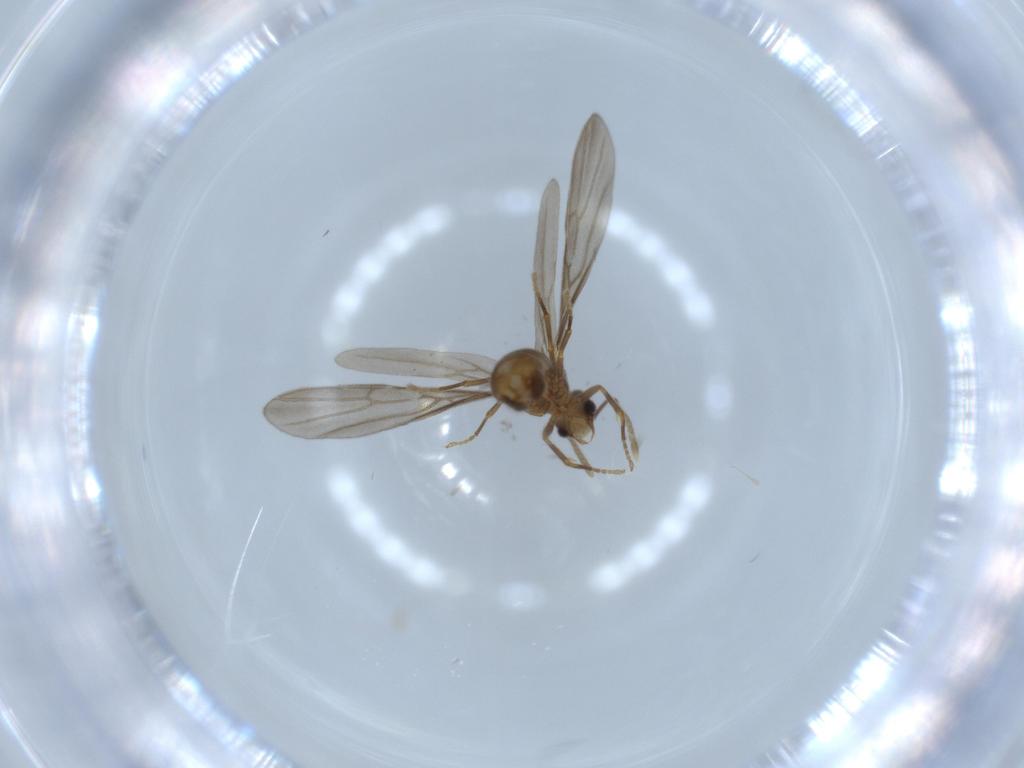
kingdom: Animalia
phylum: Arthropoda
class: Insecta
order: Hymenoptera
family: Formicidae
